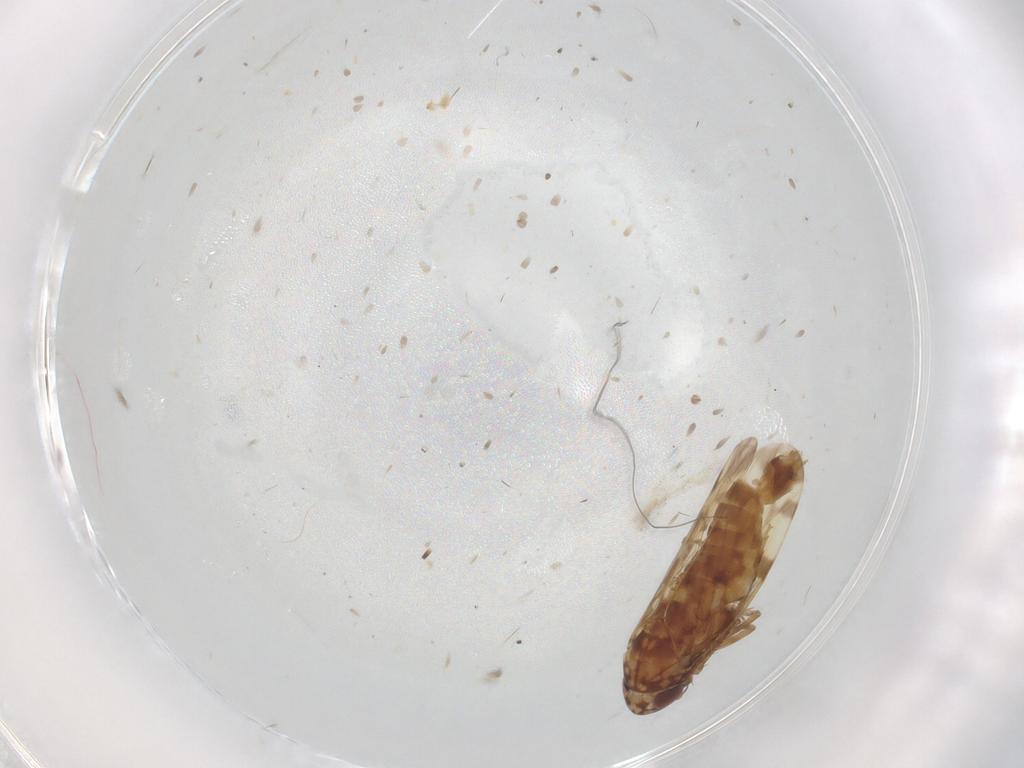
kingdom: Animalia
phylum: Arthropoda
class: Insecta
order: Hemiptera
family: Cicadellidae
